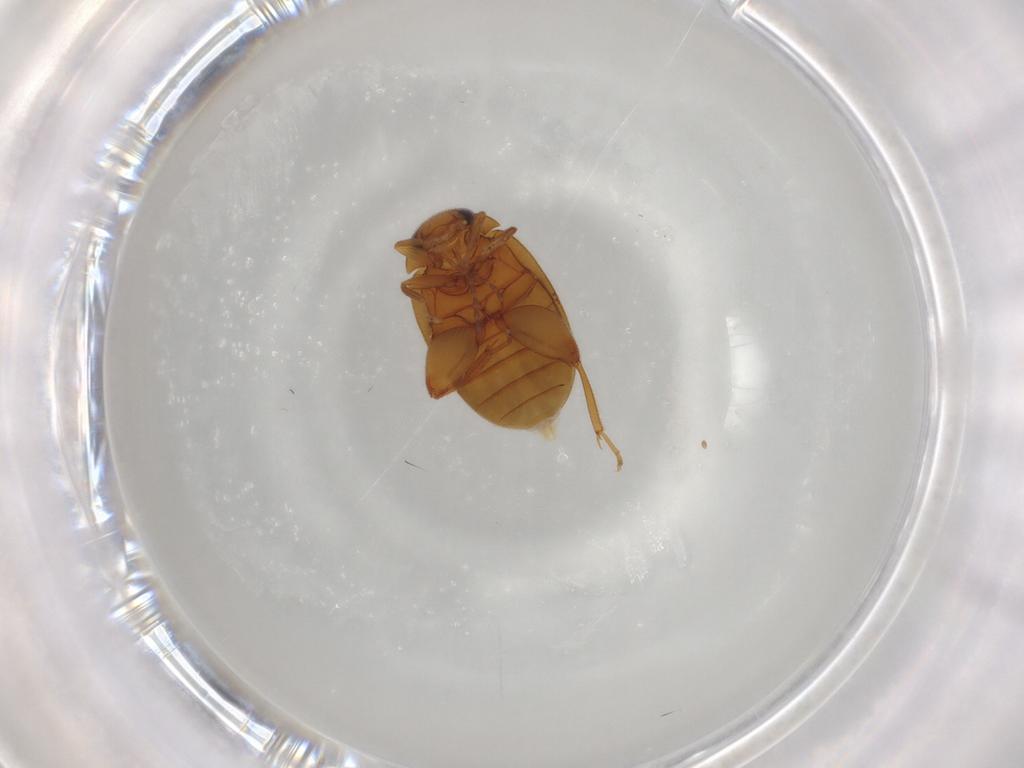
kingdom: Animalia
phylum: Arthropoda
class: Insecta
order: Coleoptera
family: Scirtidae
